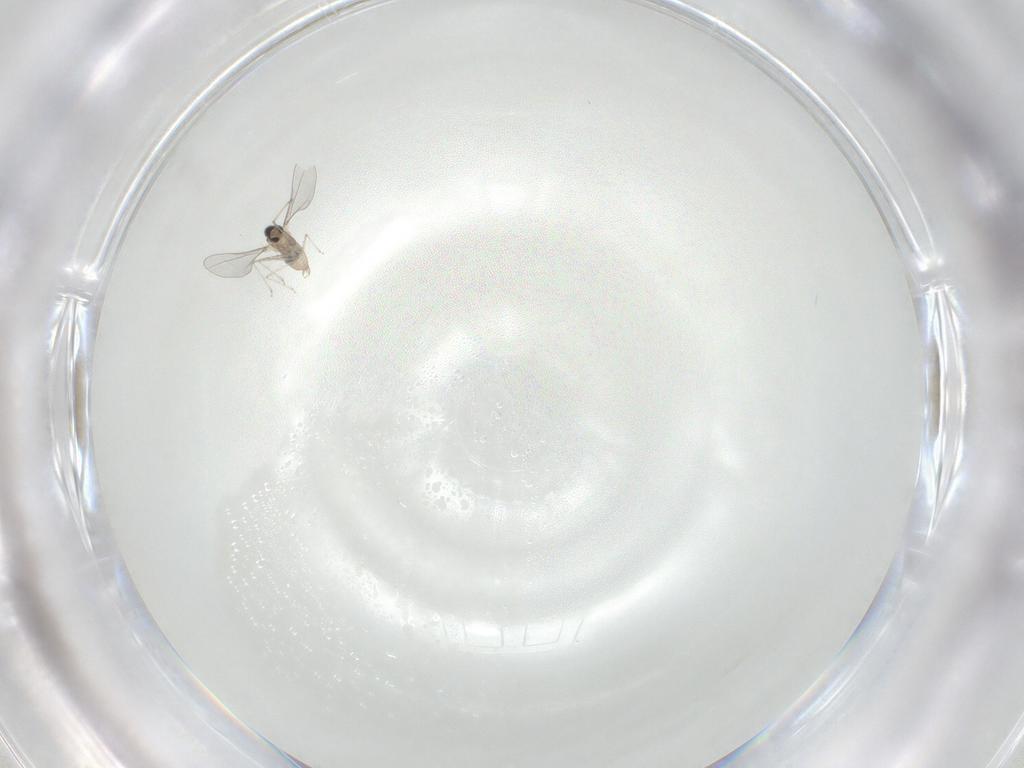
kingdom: Animalia
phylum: Arthropoda
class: Insecta
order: Diptera
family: Cecidomyiidae
